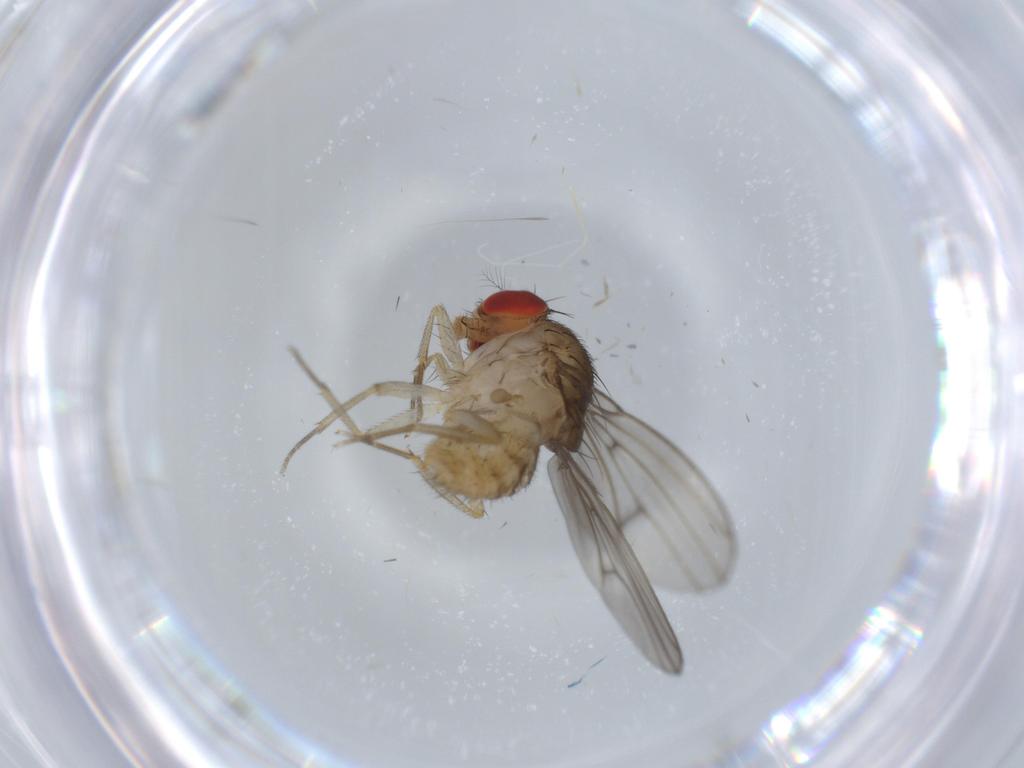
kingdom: Animalia
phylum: Arthropoda
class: Insecta
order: Diptera
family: Drosophilidae
